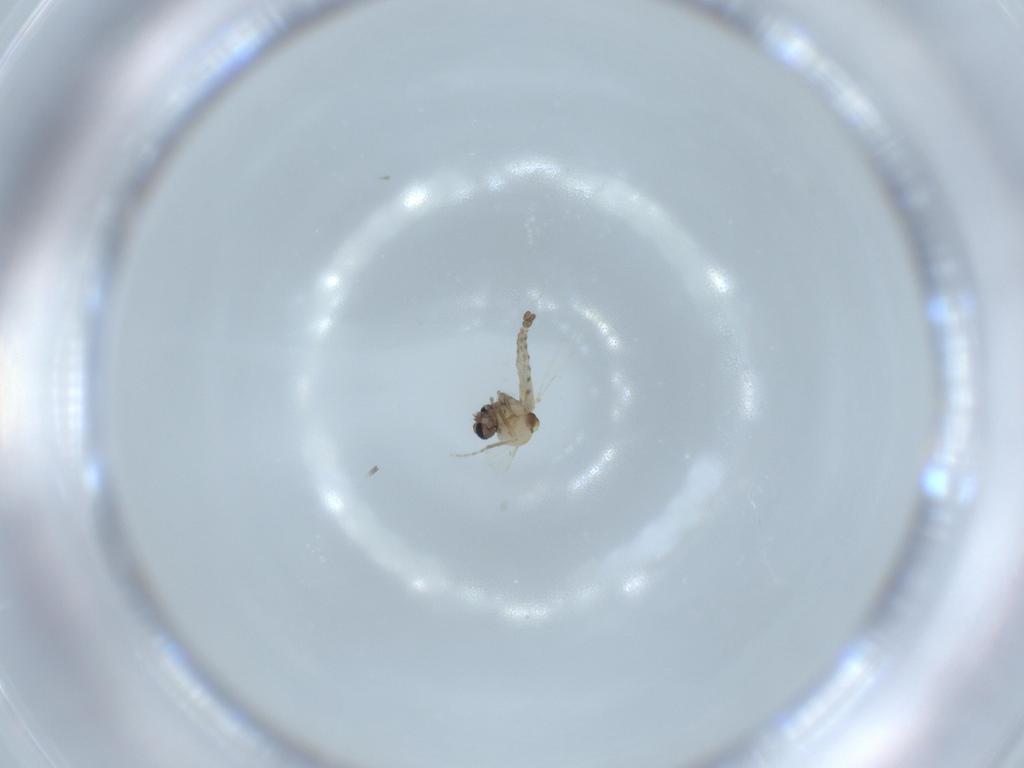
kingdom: Animalia
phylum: Arthropoda
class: Insecta
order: Diptera
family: Ceratopogonidae
